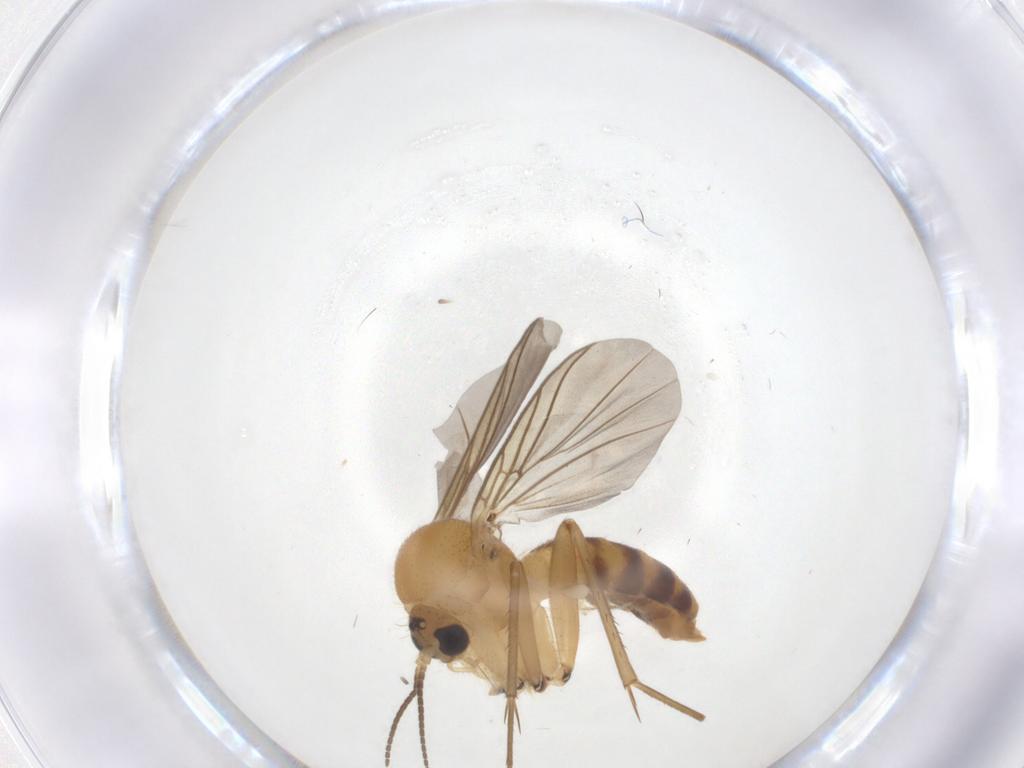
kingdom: Animalia
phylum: Arthropoda
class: Insecta
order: Diptera
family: Mycetophilidae
